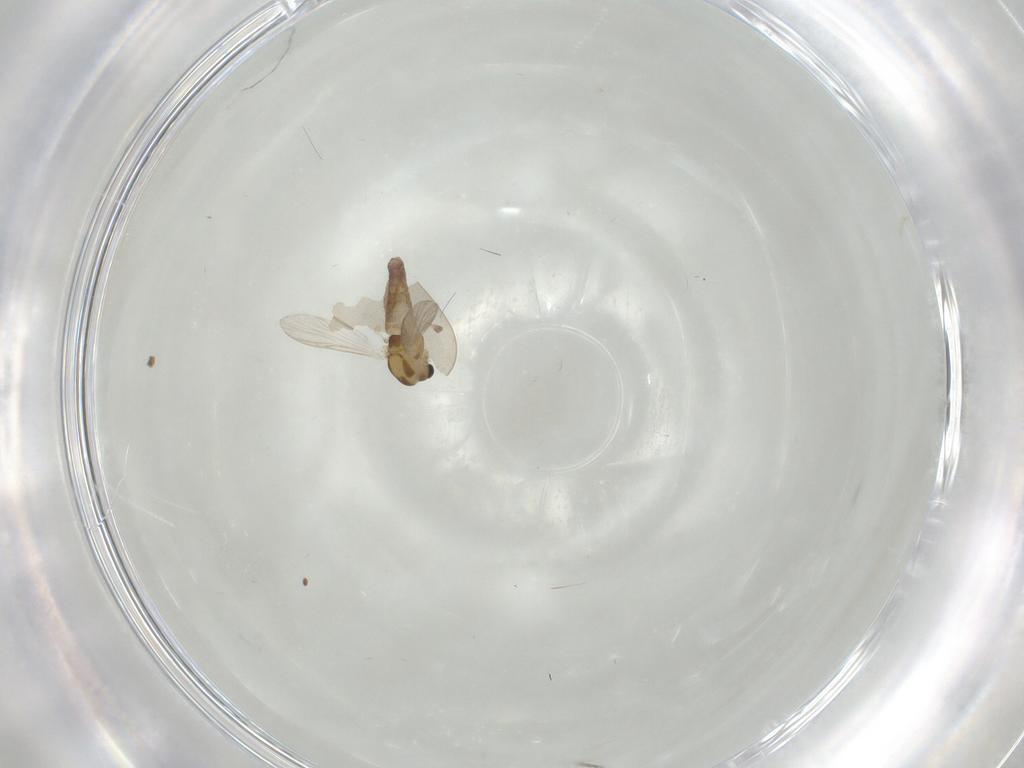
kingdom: Animalia
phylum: Arthropoda
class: Insecta
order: Diptera
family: Chironomidae
